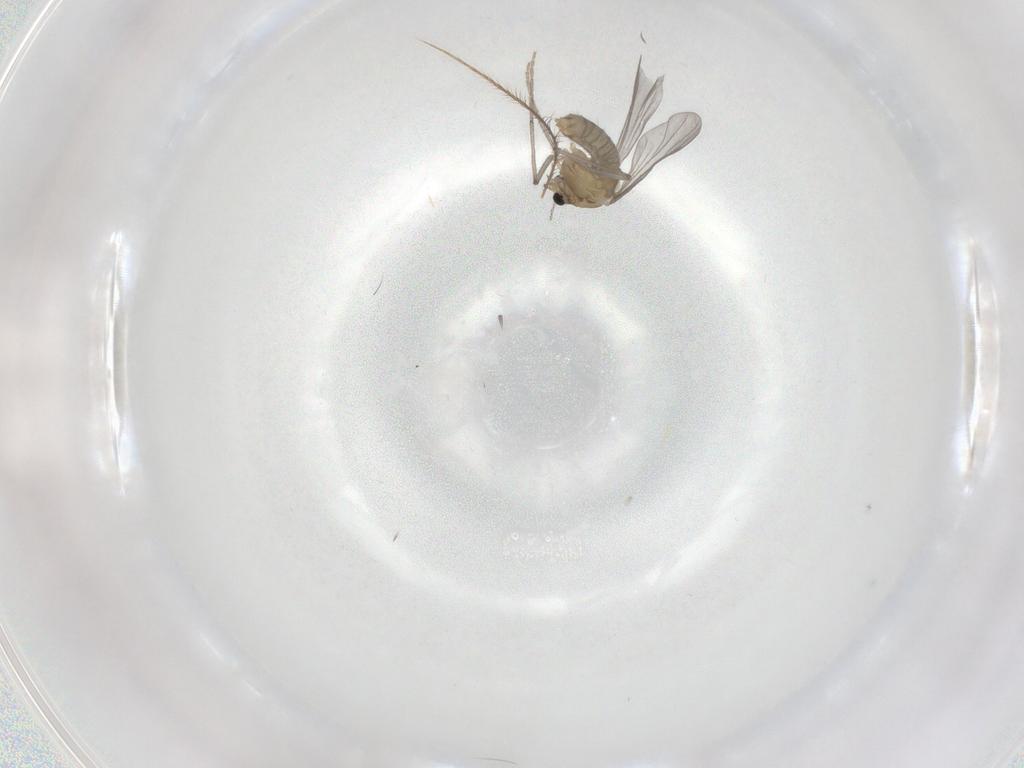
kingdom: Animalia
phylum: Arthropoda
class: Insecta
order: Diptera
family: Chironomidae
